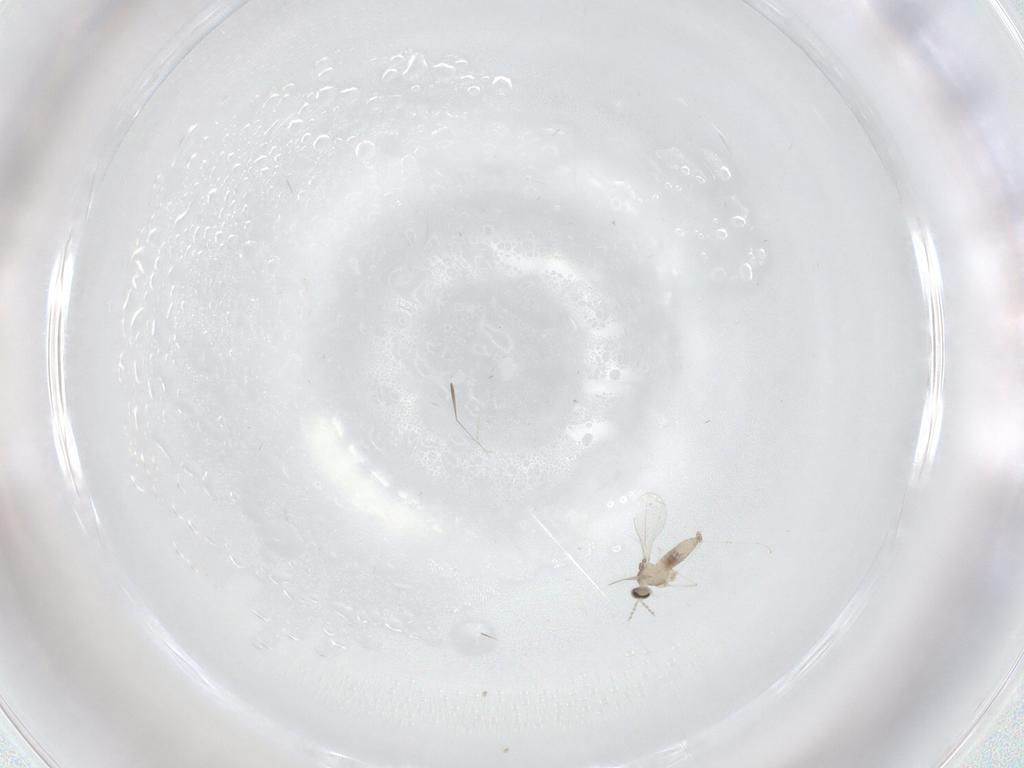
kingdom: Animalia
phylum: Arthropoda
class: Insecta
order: Diptera
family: Cecidomyiidae
